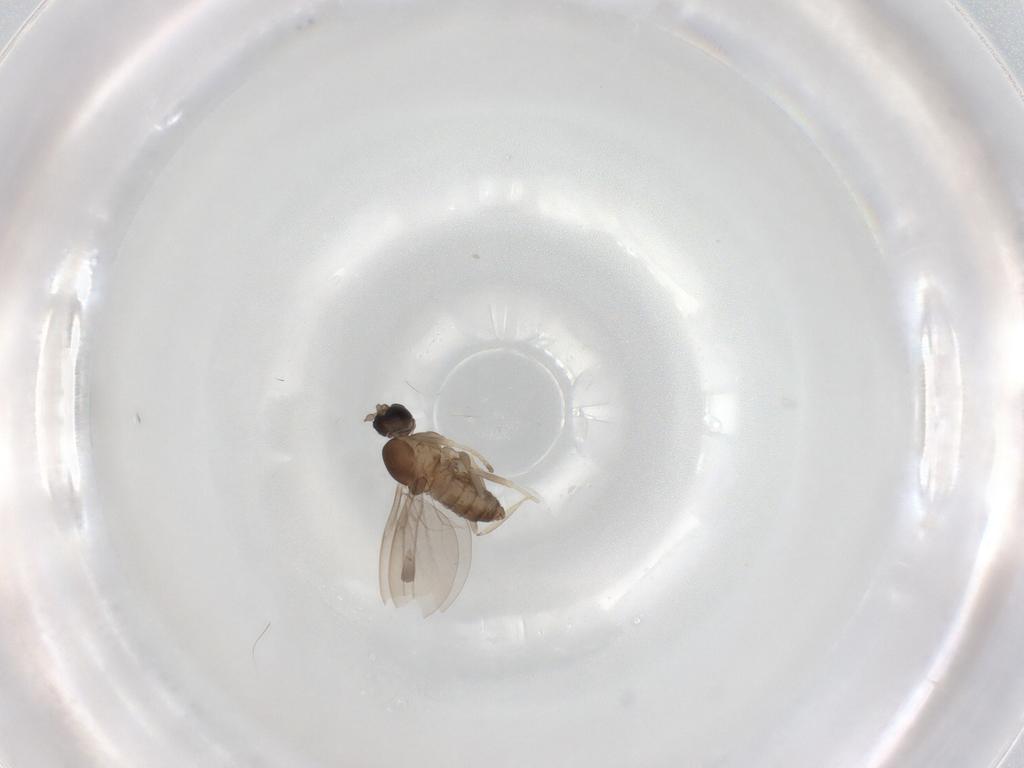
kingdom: Animalia
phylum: Arthropoda
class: Insecta
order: Diptera
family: Cecidomyiidae
